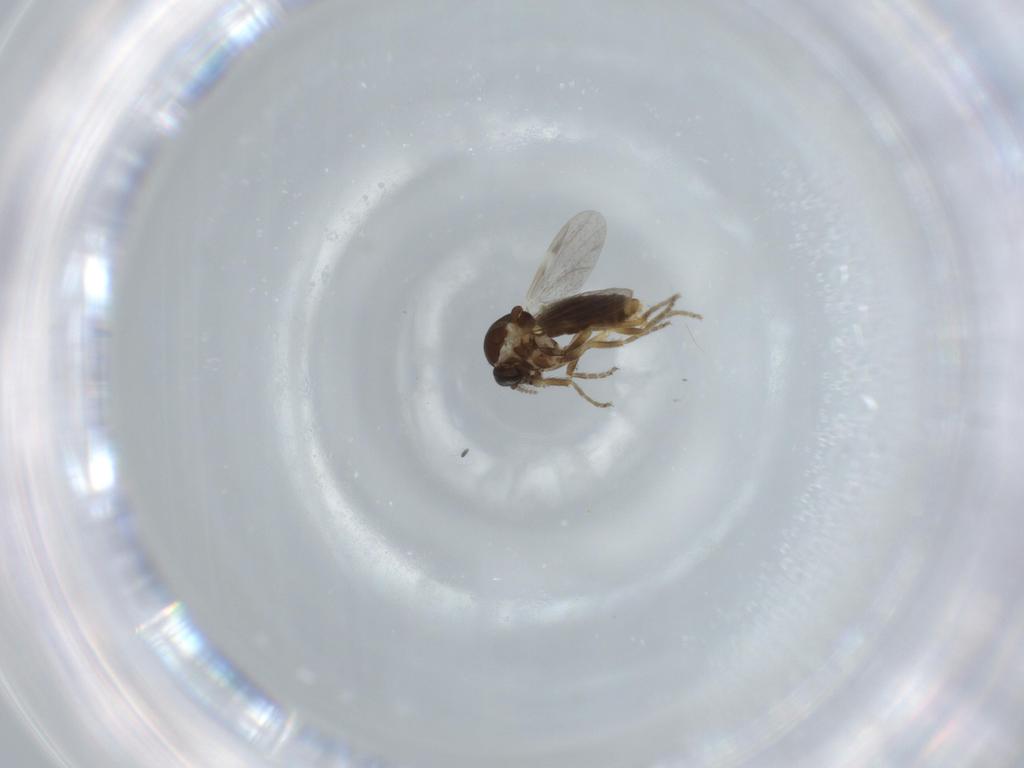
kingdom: Animalia
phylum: Arthropoda
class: Insecta
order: Diptera
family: Ceratopogonidae
